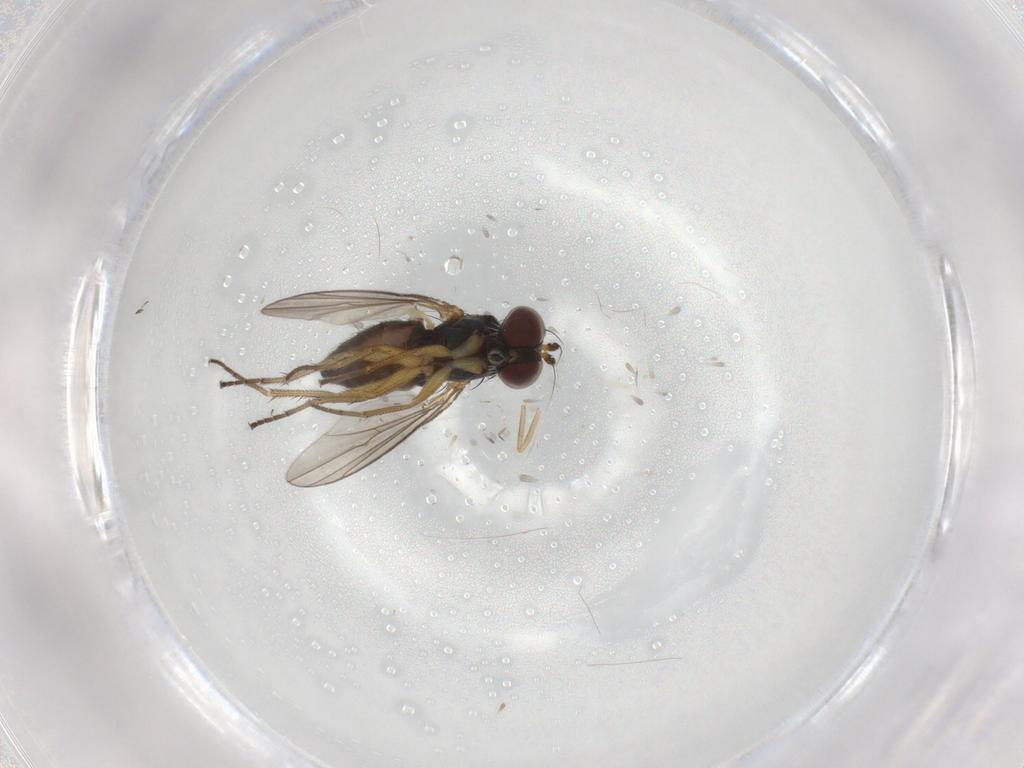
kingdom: Animalia
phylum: Arthropoda
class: Insecta
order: Diptera
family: Ceratopogonidae
